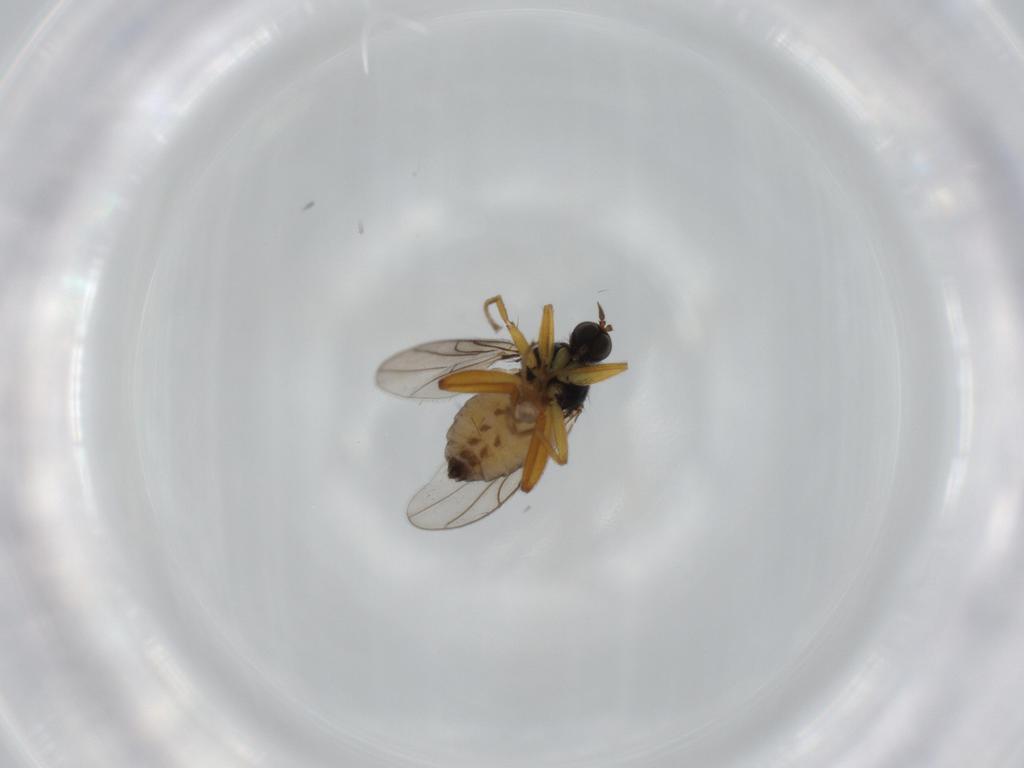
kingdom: Animalia
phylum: Arthropoda
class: Insecta
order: Diptera
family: Hybotidae
